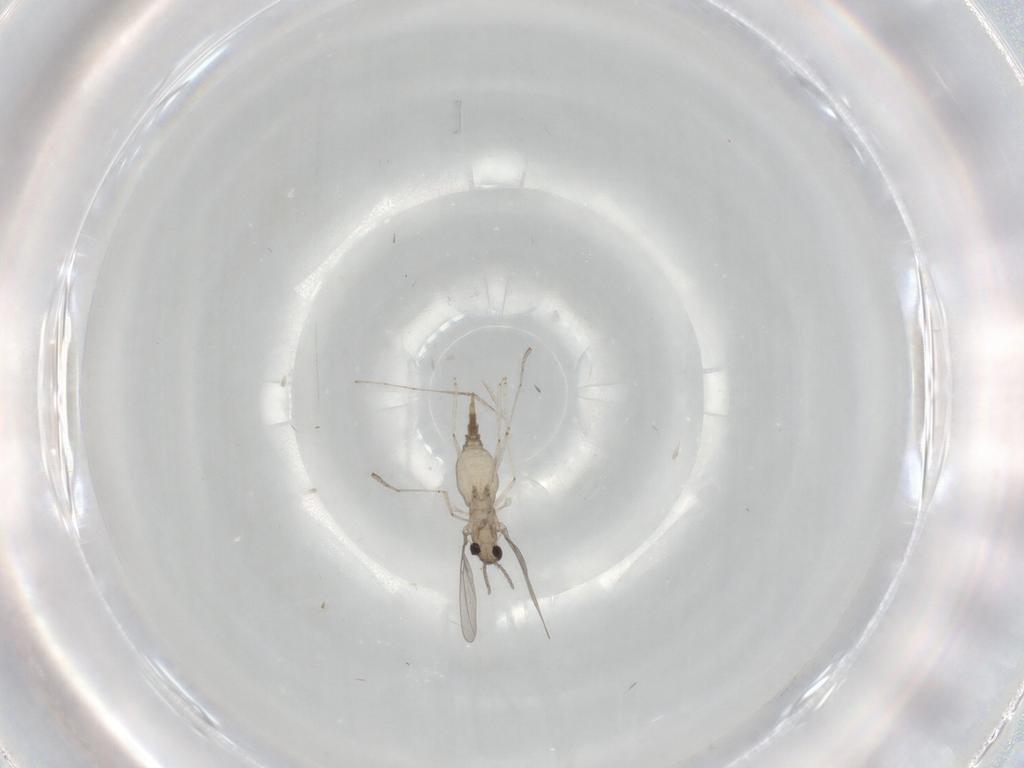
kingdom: Animalia
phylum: Arthropoda
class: Insecta
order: Diptera
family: Cecidomyiidae
